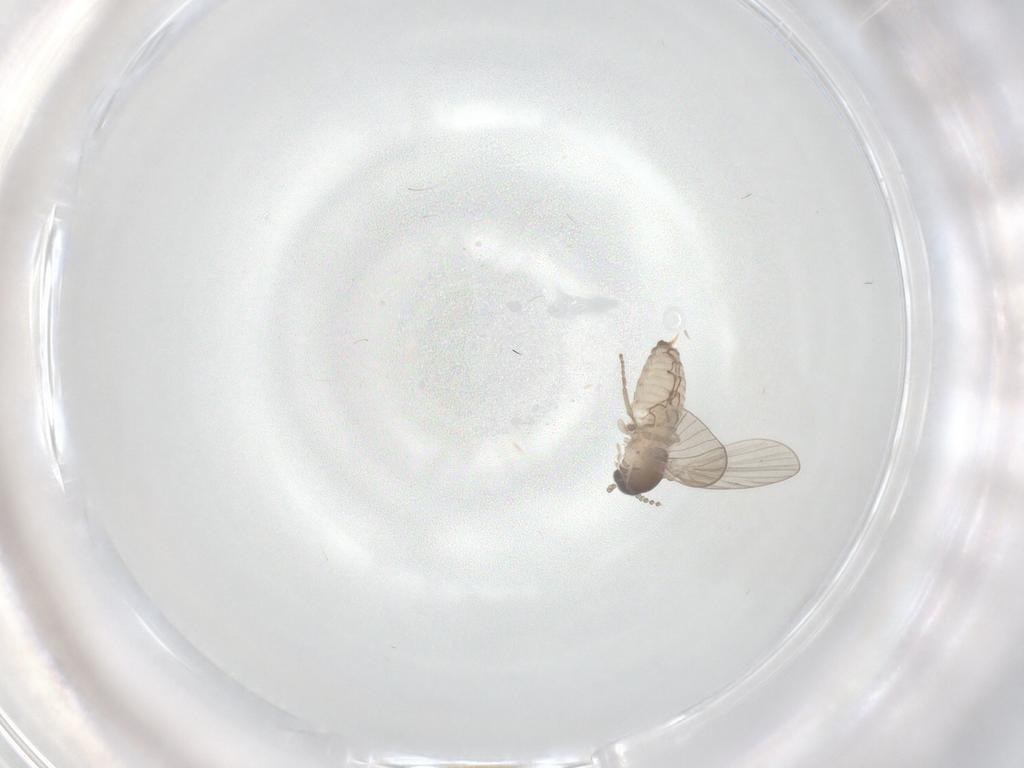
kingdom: Animalia
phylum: Arthropoda
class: Insecta
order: Diptera
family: Psychodidae
